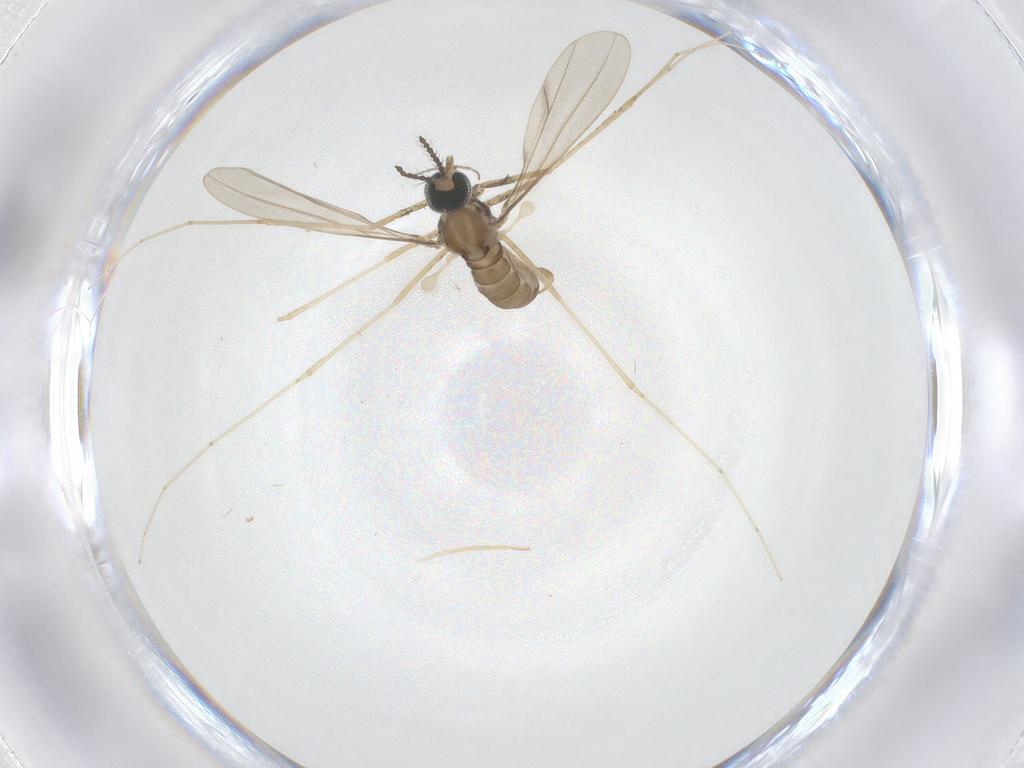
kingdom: Animalia
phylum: Arthropoda
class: Insecta
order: Diptera
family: Cecidomyiidae
